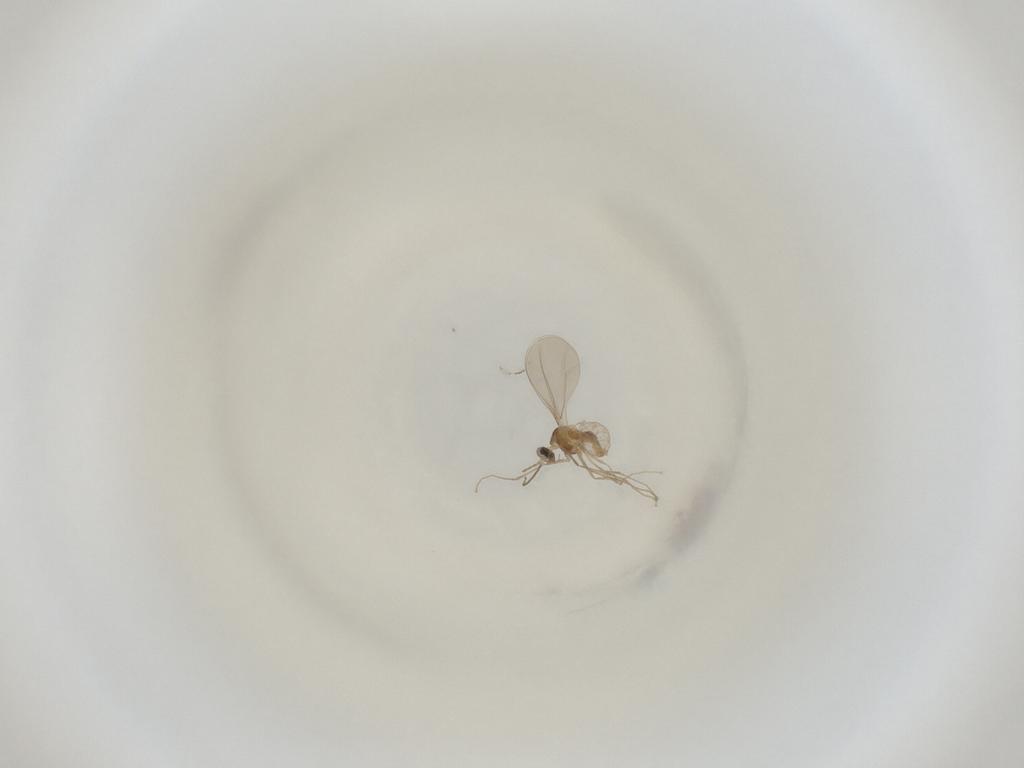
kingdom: Animalia
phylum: Arthropoda
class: Insecta
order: Diptera
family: Cecidomyiidae
